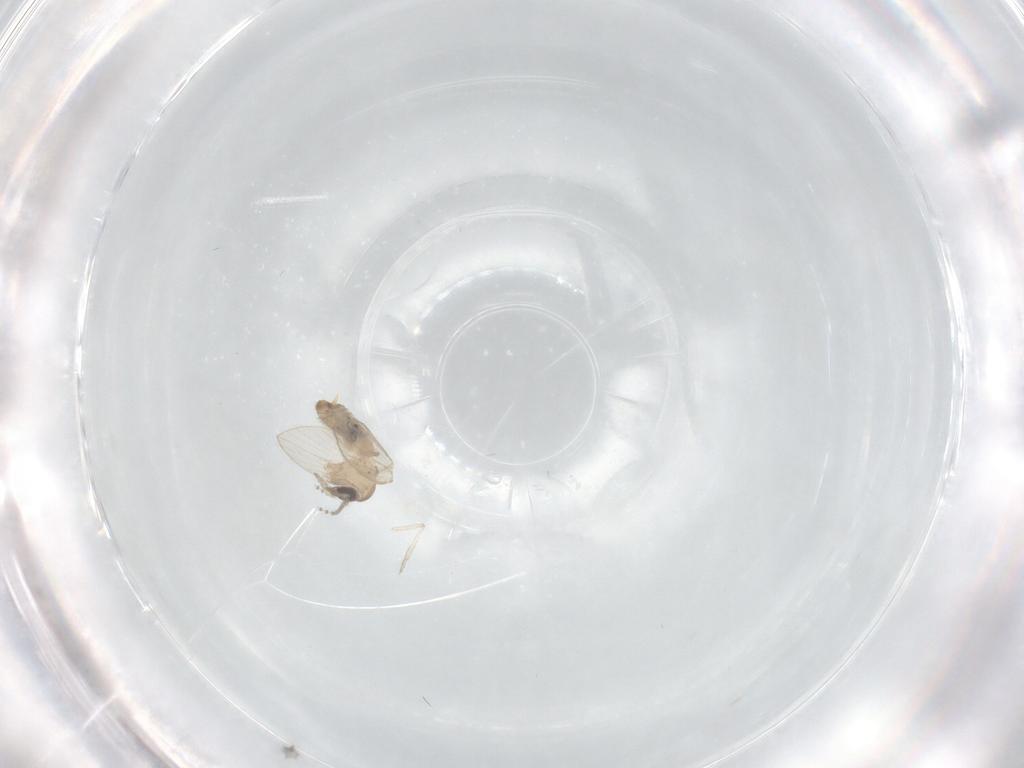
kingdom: Animalia
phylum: Arthropoda
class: Insecta
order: Diptera
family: Psychodidae
